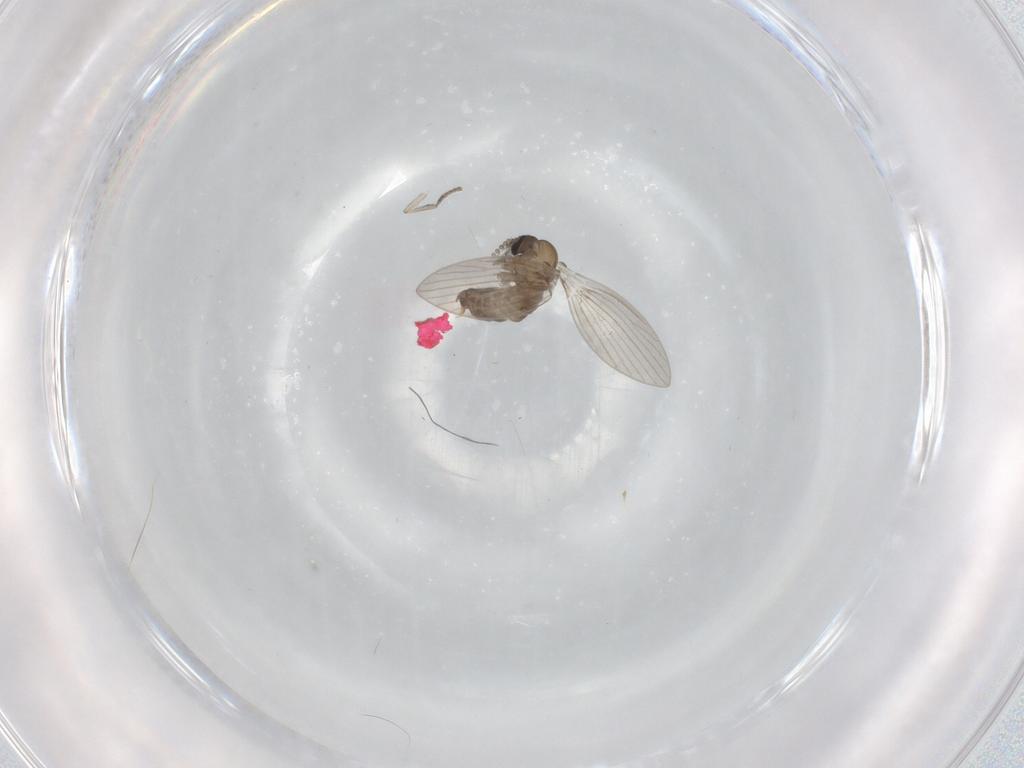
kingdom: Animalia
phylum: Arthropoda
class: Insecta
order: Diptera
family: Psychodidae
